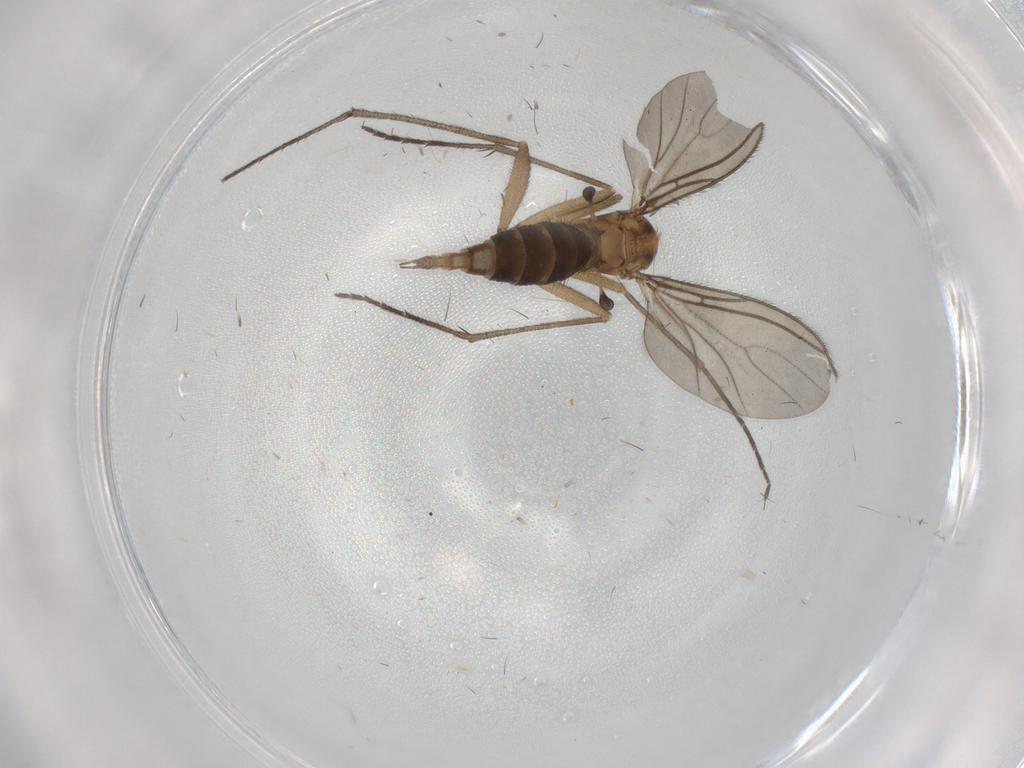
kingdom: Animalia
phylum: Arthropoda
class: Insecta
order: Diptera
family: Sciaridae
